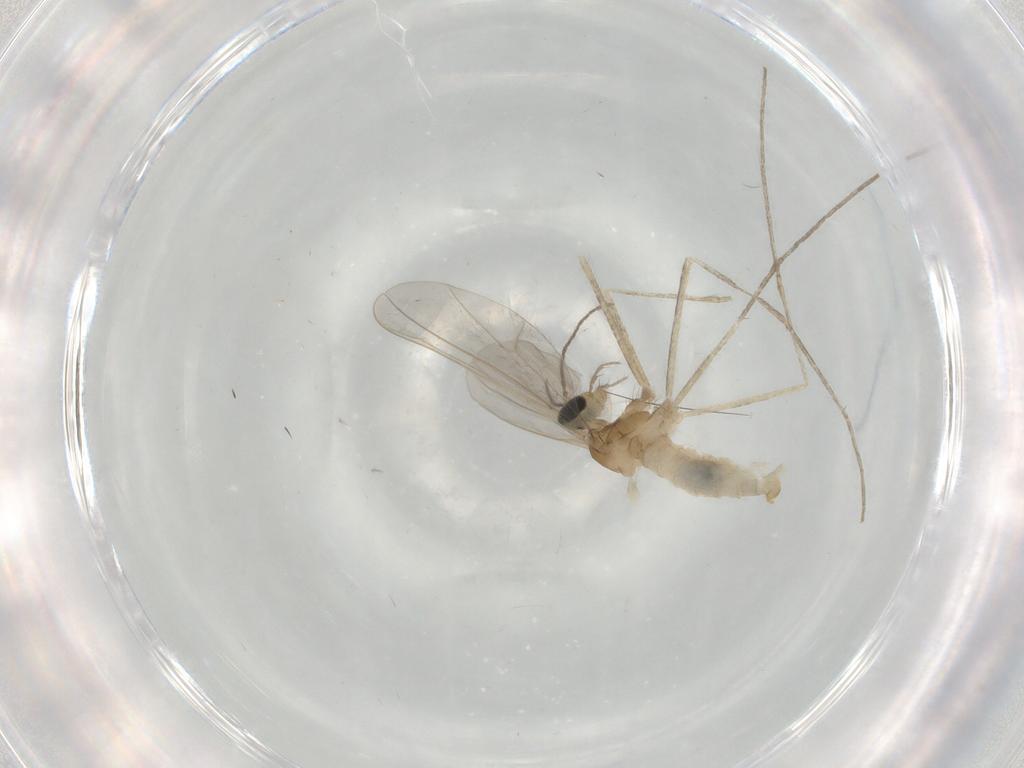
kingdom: Animalia
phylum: Arthropoda
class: Insecta
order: Diptera
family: Cecidomyiidae
